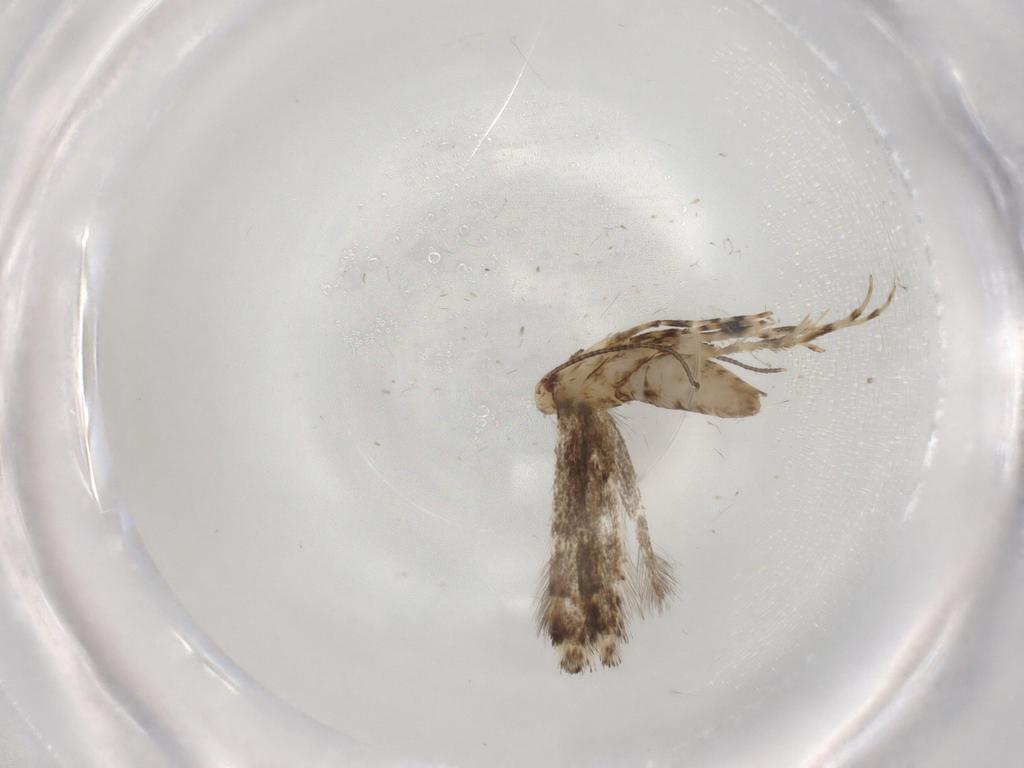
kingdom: Animalia
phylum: Arthropoda
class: Insecta
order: Lepidoptera
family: Gracillariidae
